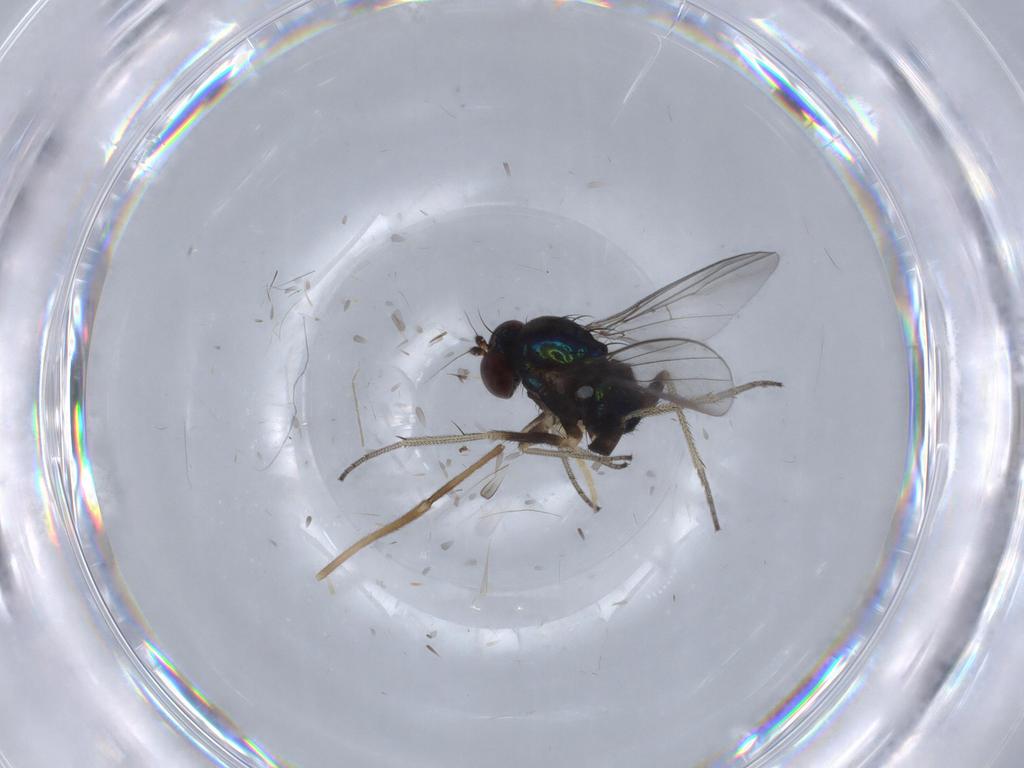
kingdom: Animalia
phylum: Arthropoda
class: Insecta
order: Diptera
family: Chironomidae
